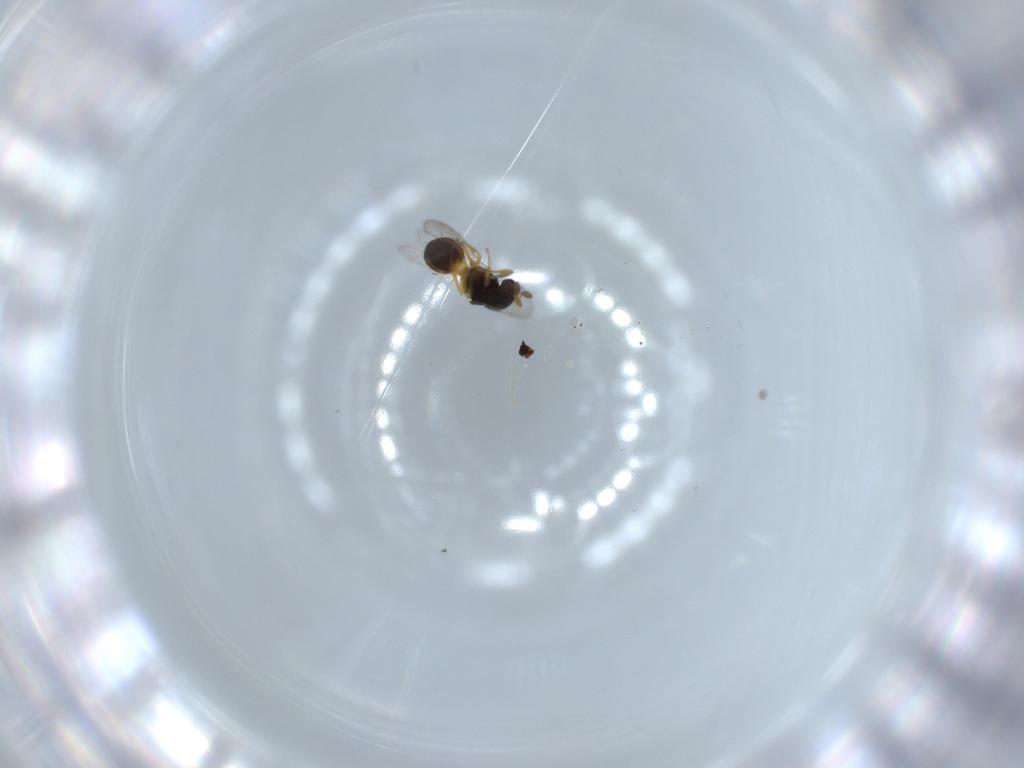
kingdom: Animalia
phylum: Arthropoda
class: Insecta
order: Hymenoptera
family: Scelionidae
